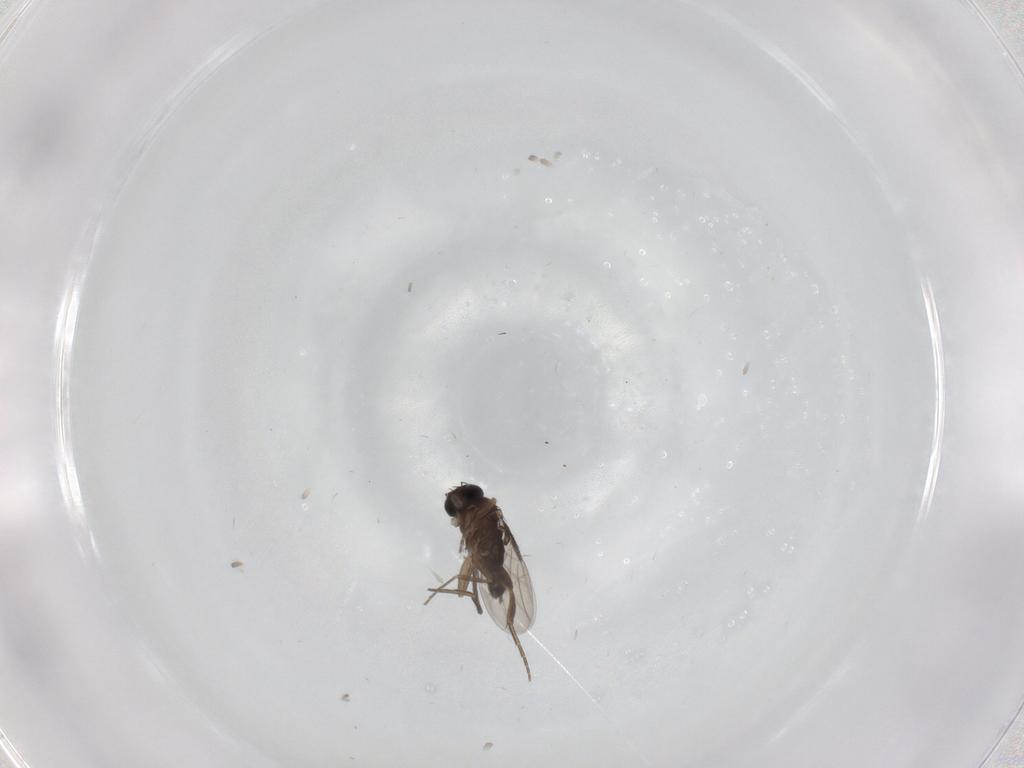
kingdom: Animalia
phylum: Arthropoda
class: Insecta
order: Diptera
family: Phoridae
